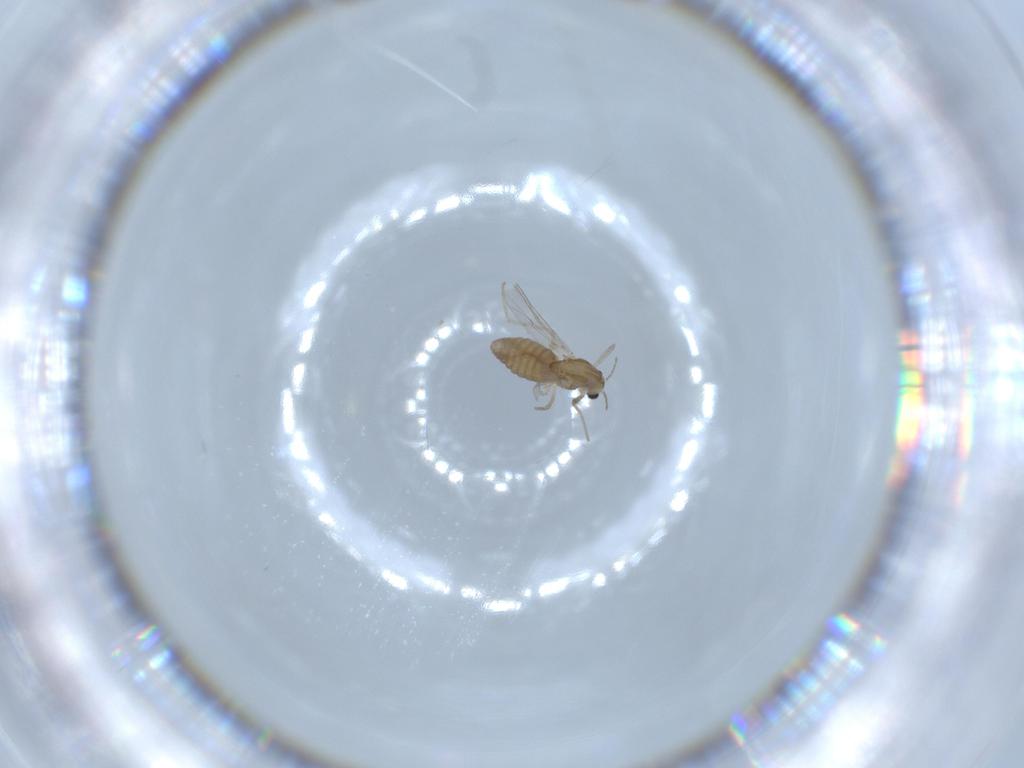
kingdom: Animalia
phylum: Arthropoda
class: Insecta
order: Diptera
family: Chironomidae
